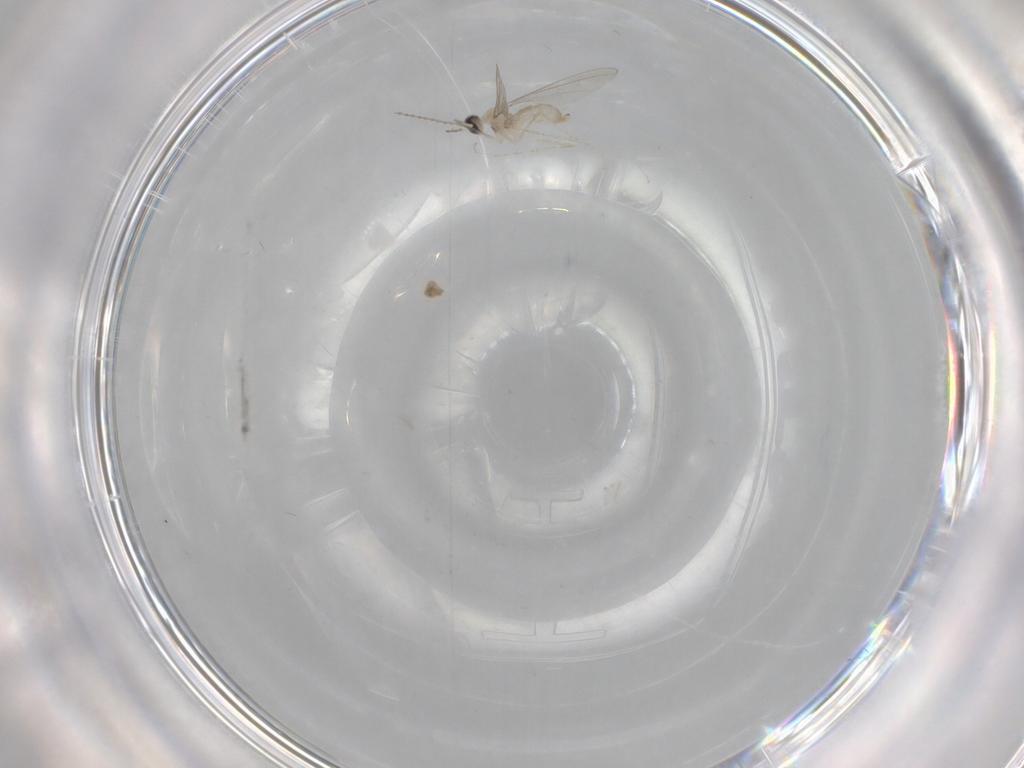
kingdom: Animalia
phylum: Arthropoda
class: Insecta
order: Diptera
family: Cecidomyiidae
